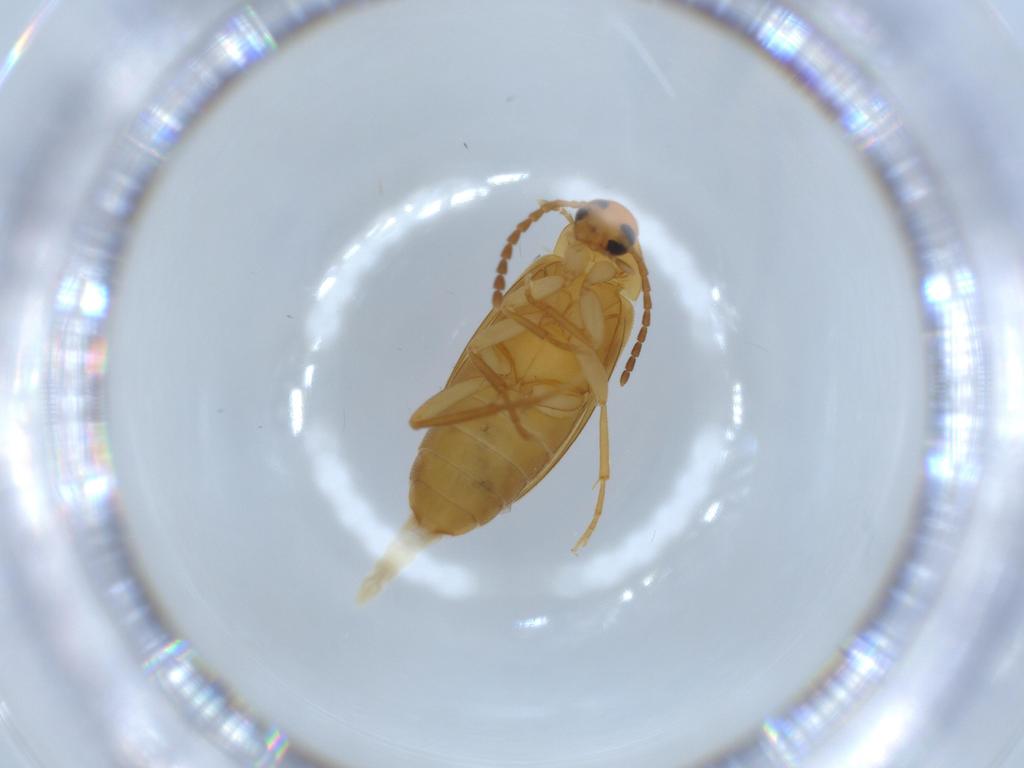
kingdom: Animalia
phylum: Arthropoda
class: Insecta
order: Coleoptera
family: Scraptiidae
